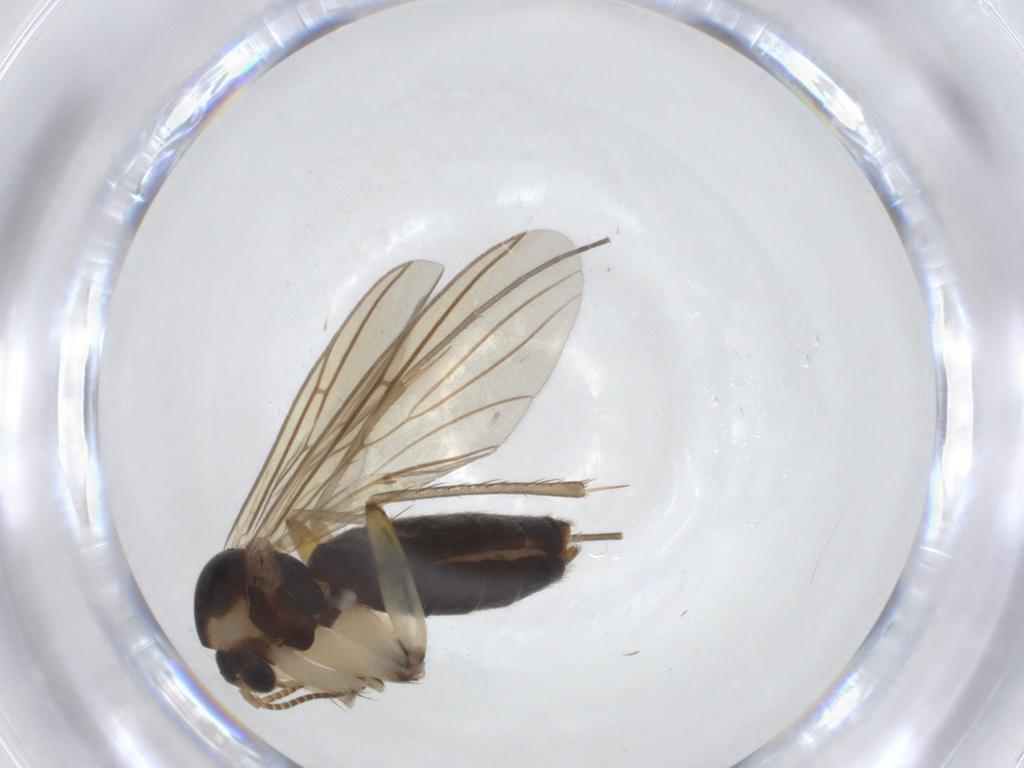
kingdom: Animalia
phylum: Arthropoda
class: Insecta
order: Diptera
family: Mycetophilidae
